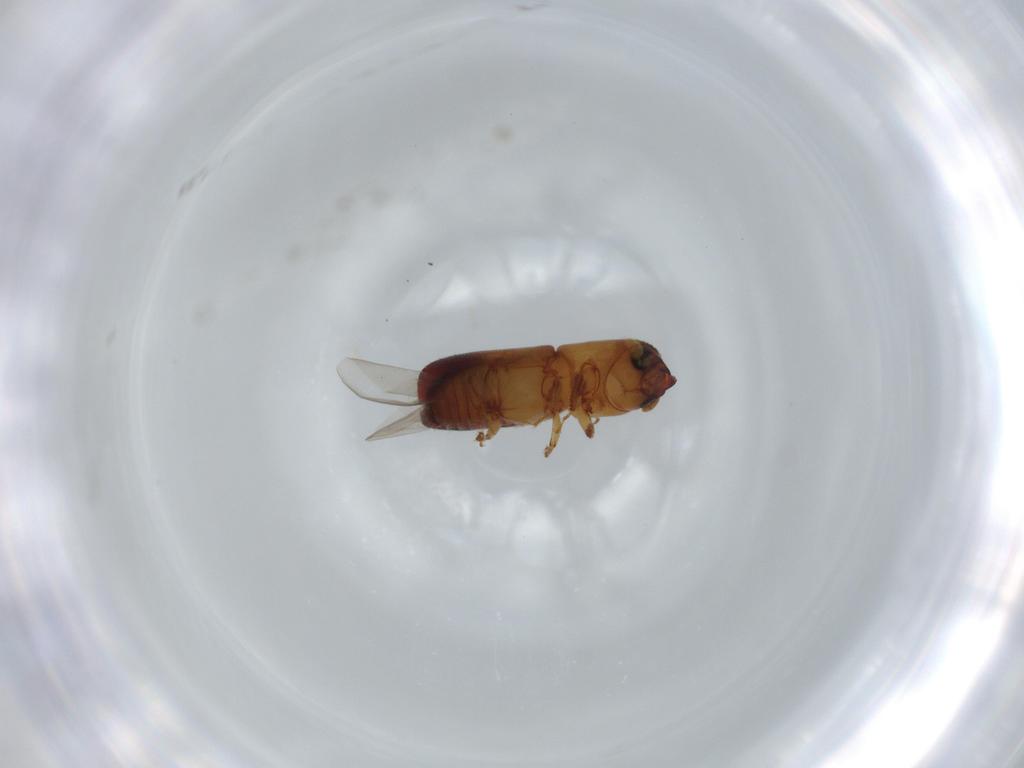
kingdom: Animalia
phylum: Arthropoda
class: Insecta
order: Coleoptera
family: Curculionidae
